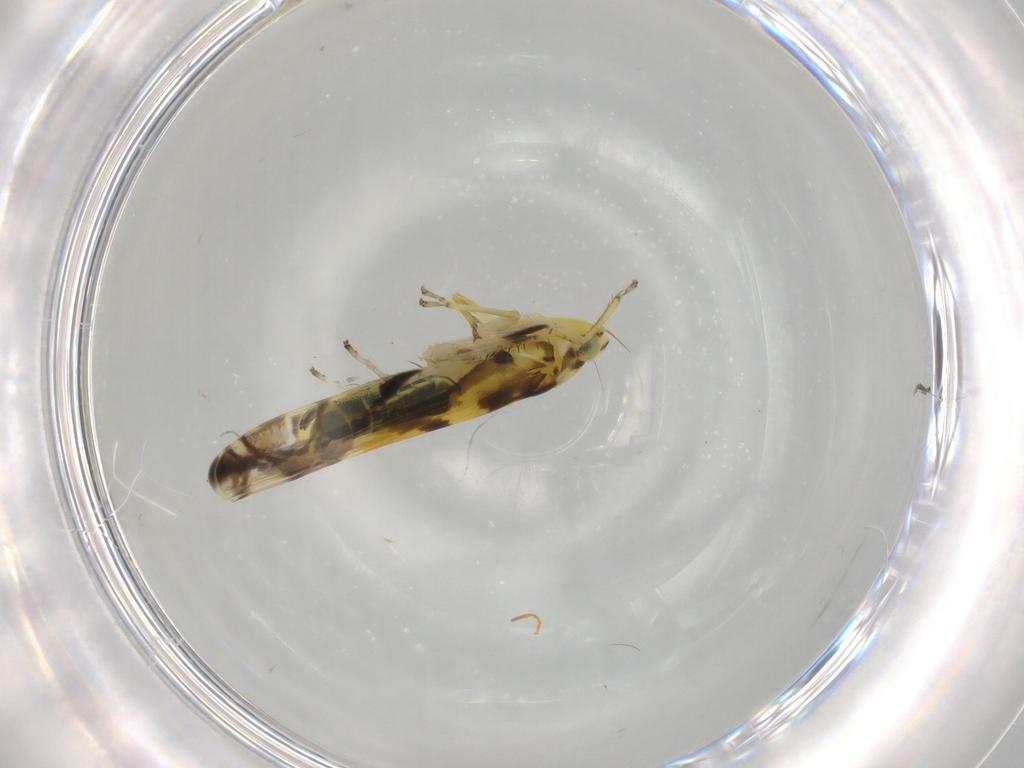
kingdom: Animalia
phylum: Arthropoda
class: Insecta
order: Hemiptera
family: Cicadellidae
